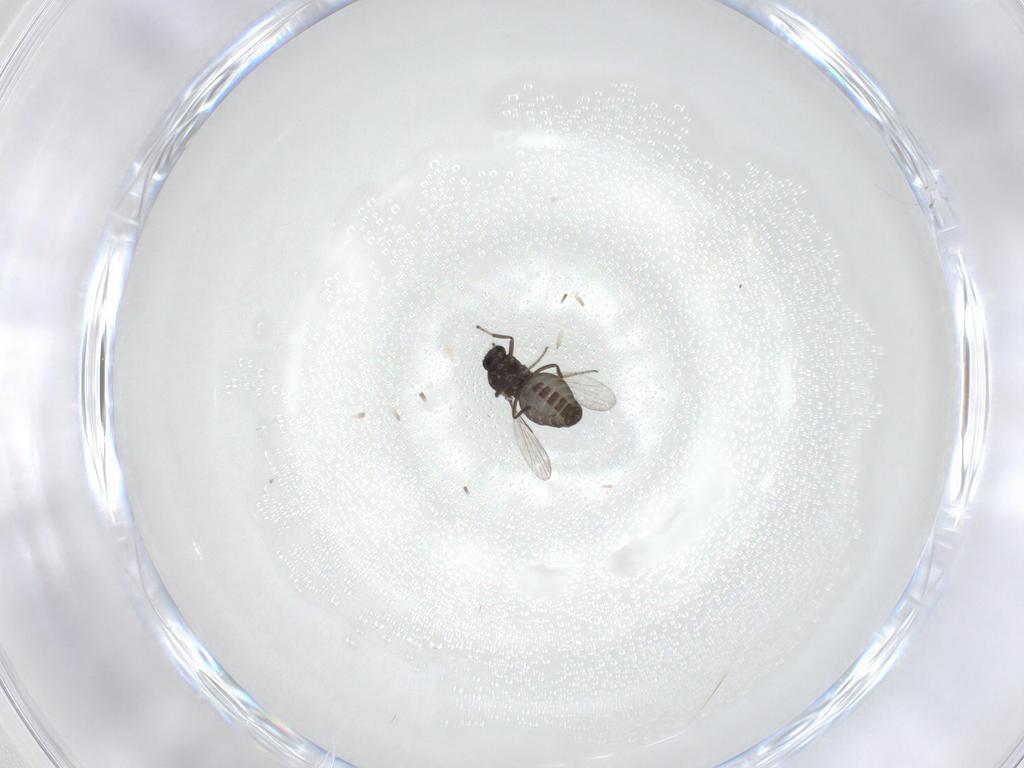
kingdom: Animalia
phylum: Arthropoda
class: Insecta
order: Diptera
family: Ceratopogonidae
